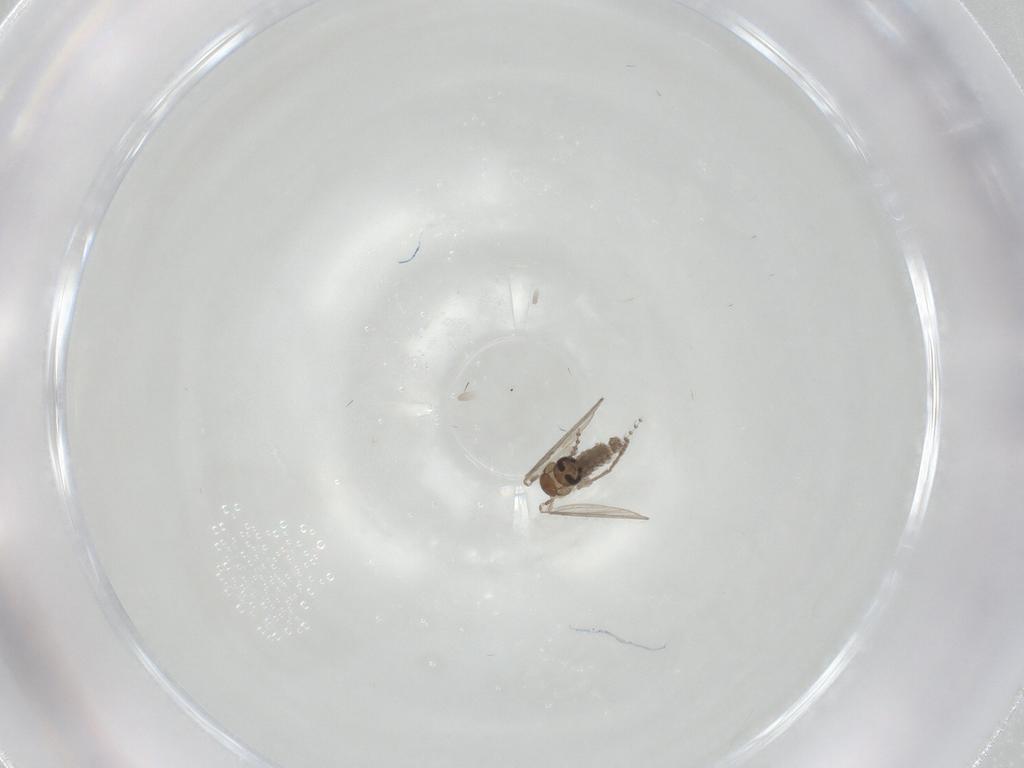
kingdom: Animalia
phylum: Arthropoda
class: Insecta
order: Diptera
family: Psychodidae
